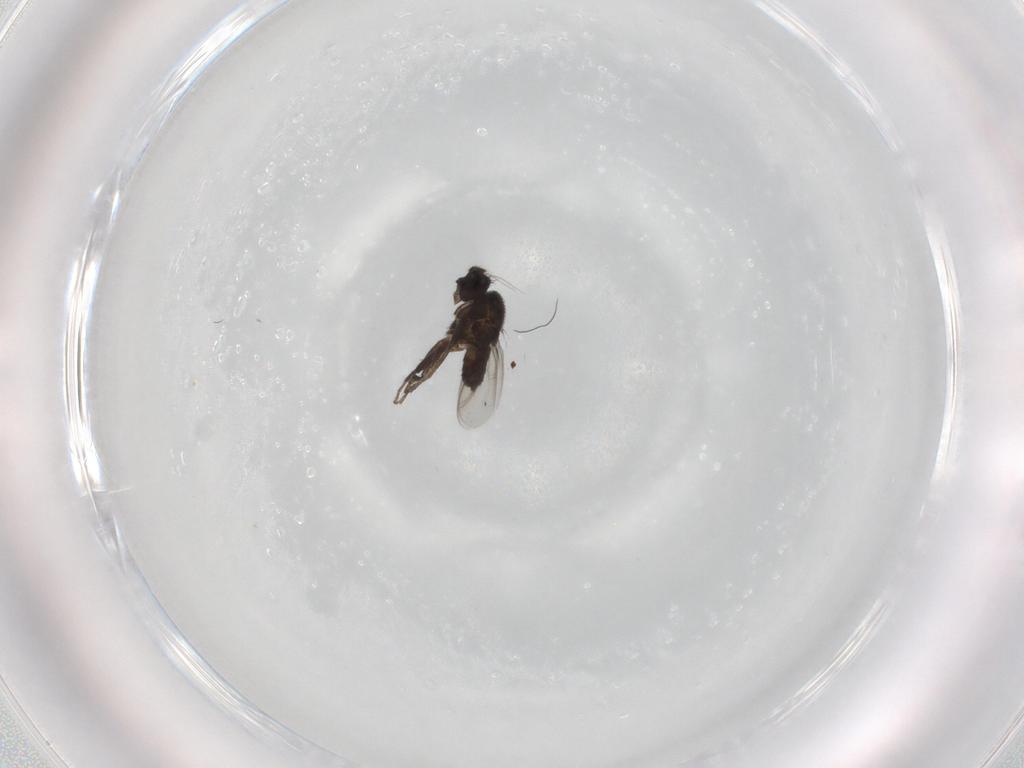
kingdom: Animalia
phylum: Arthropoda
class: Insecta
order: Diptera
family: Sphaeroceridae
